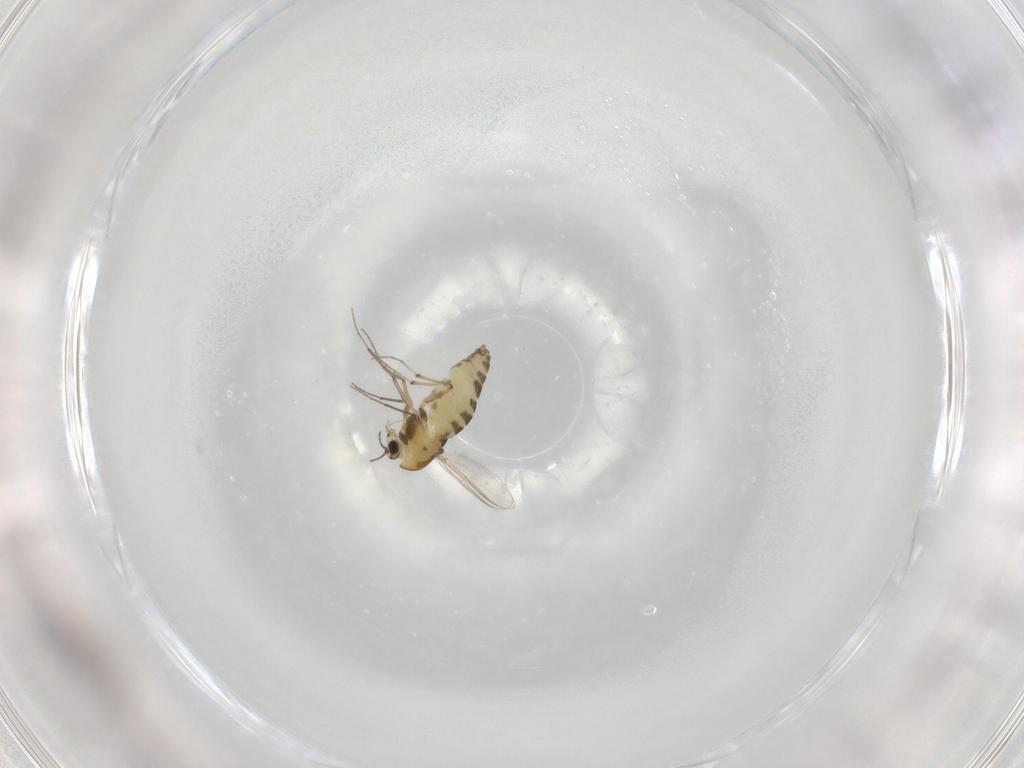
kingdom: Animalia
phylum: Arthropoda
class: Insecta
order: Diptera
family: Chironomidae
